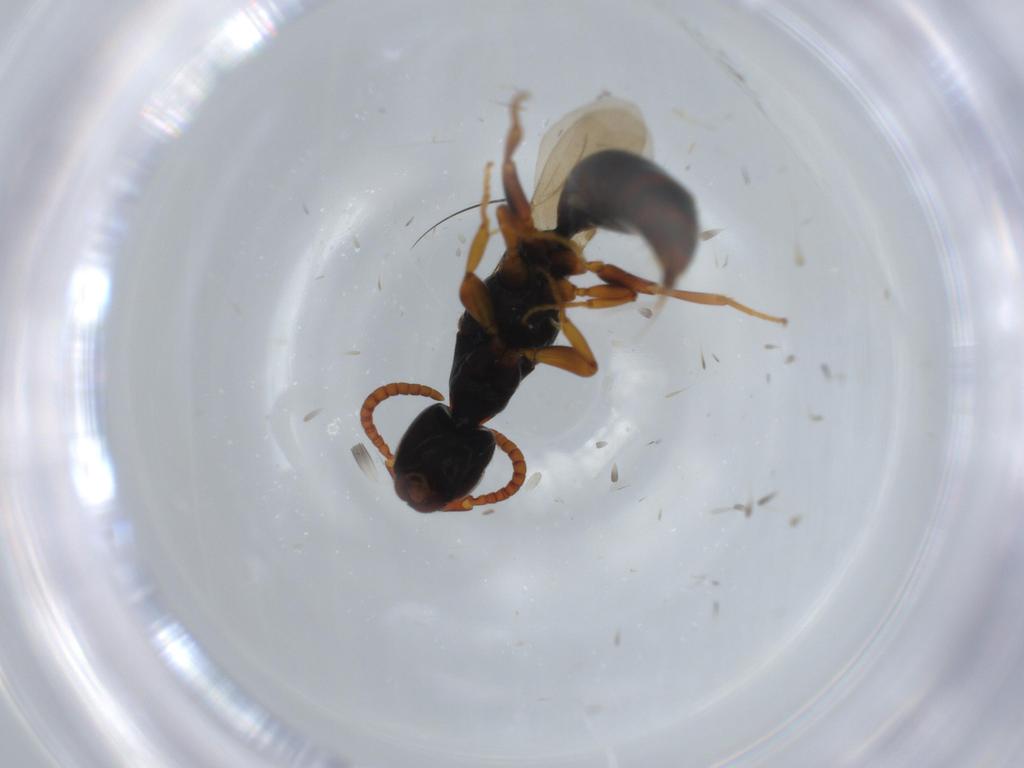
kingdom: Animalia
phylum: Arthropoda
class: Insecta
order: Hymenoptera
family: Bethylidae
